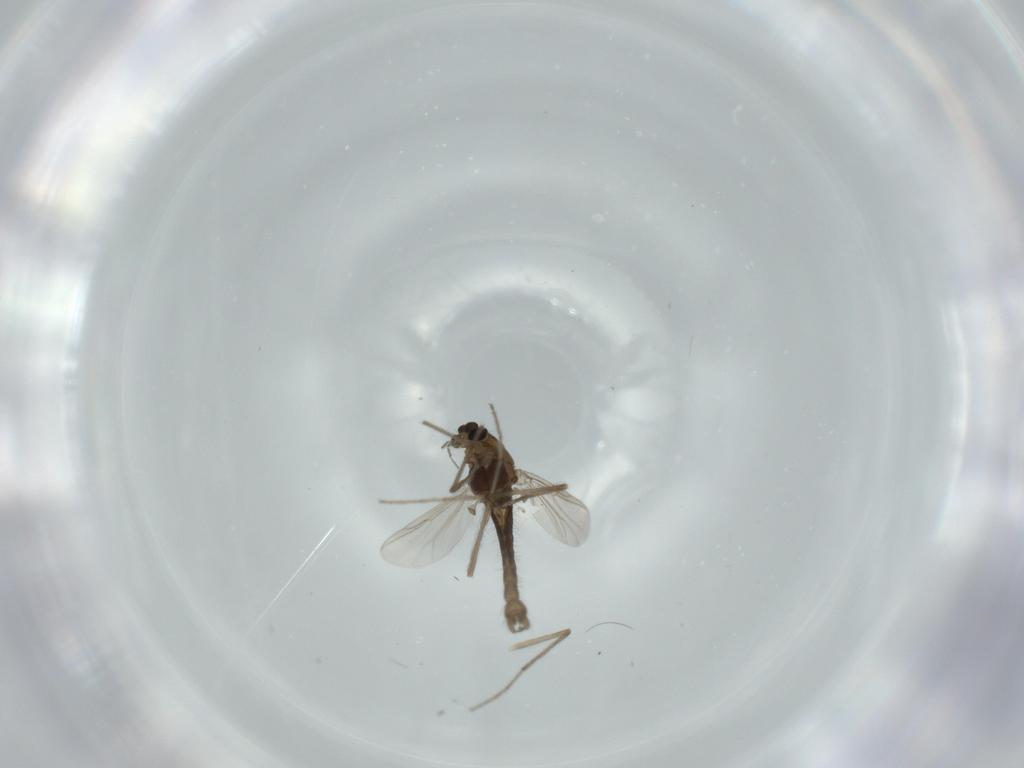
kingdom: Animalia
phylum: Arthropoda
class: Insecta
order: Diptera
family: Chironomidae
